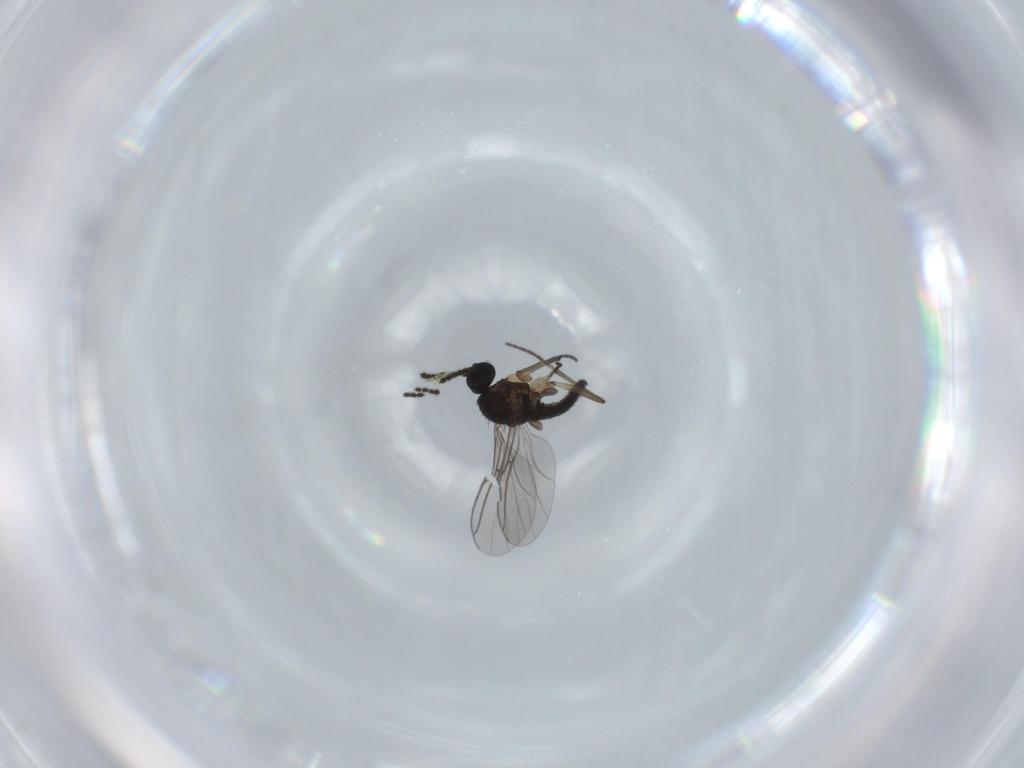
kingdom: Animalia
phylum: Arthropoda
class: Insecta
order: Diptera
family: Sciaridae
